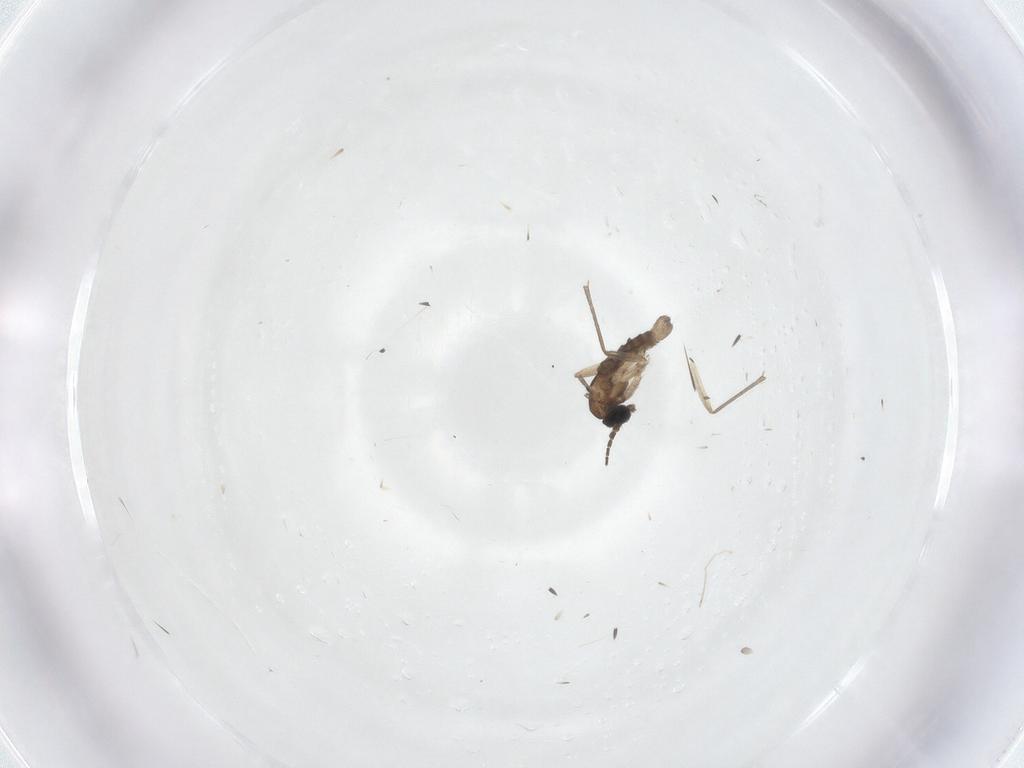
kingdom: Animalia
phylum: Arthropoda
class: Insecta
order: Diptera
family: Sciaridae
